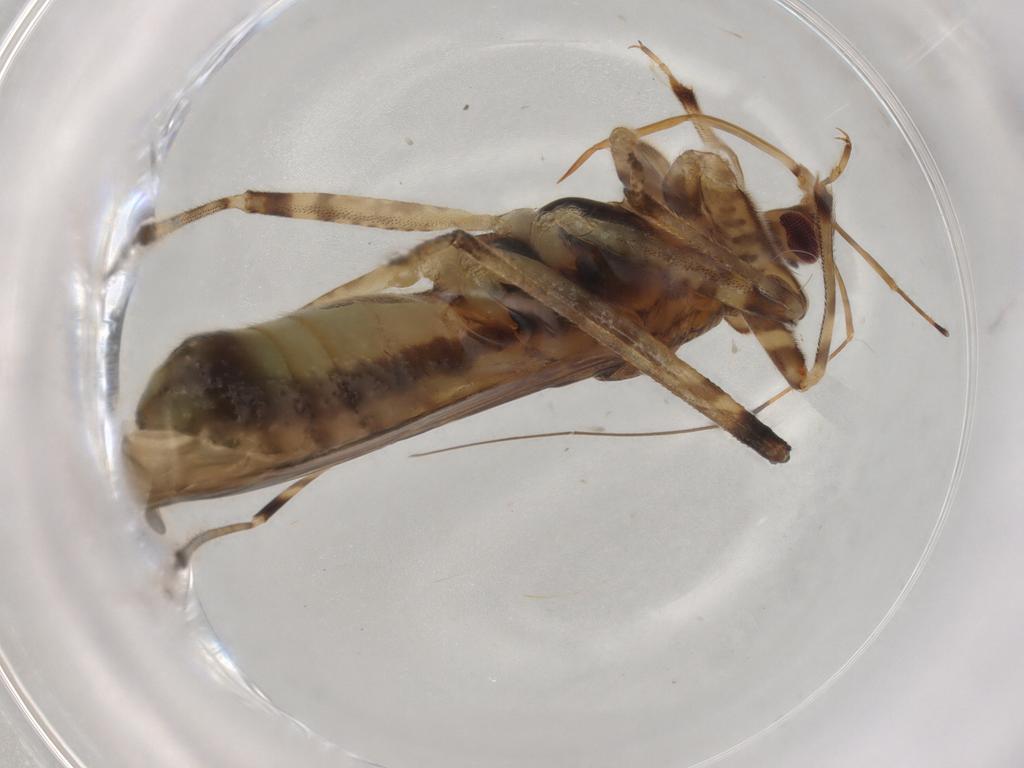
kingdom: Animalia
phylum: Arthropoda
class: Insecta
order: Hemiptera
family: Nabidae
